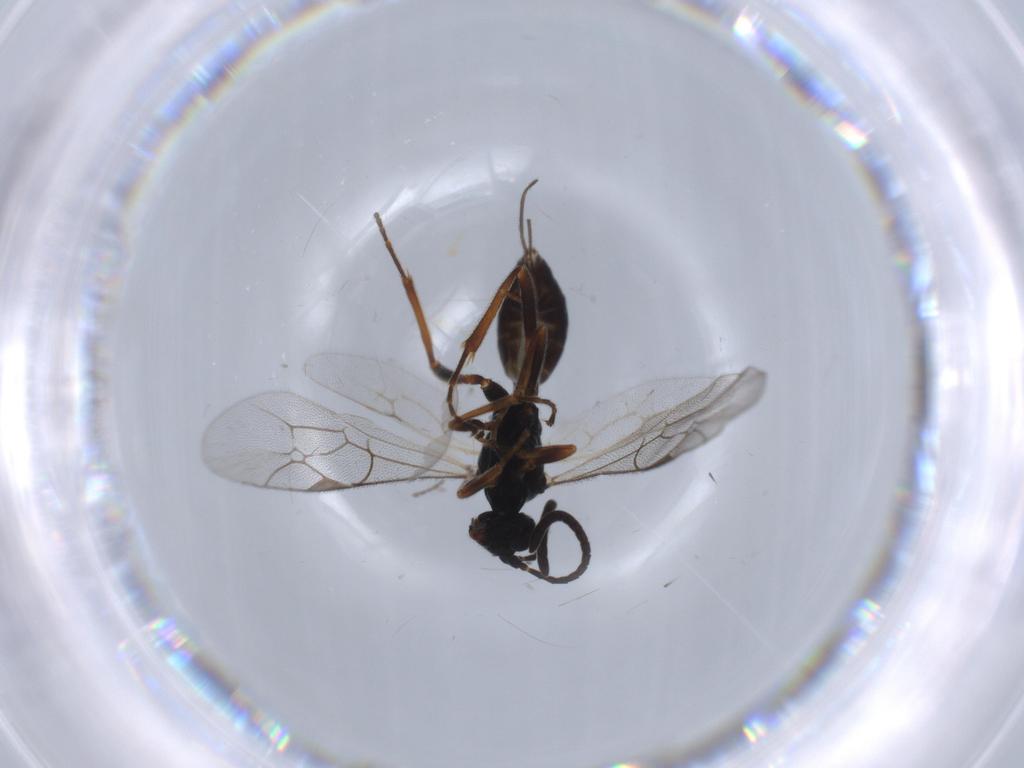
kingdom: Animalia
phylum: Arthropoda
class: Insecta
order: Hymenoptera
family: Ichneumonidae
